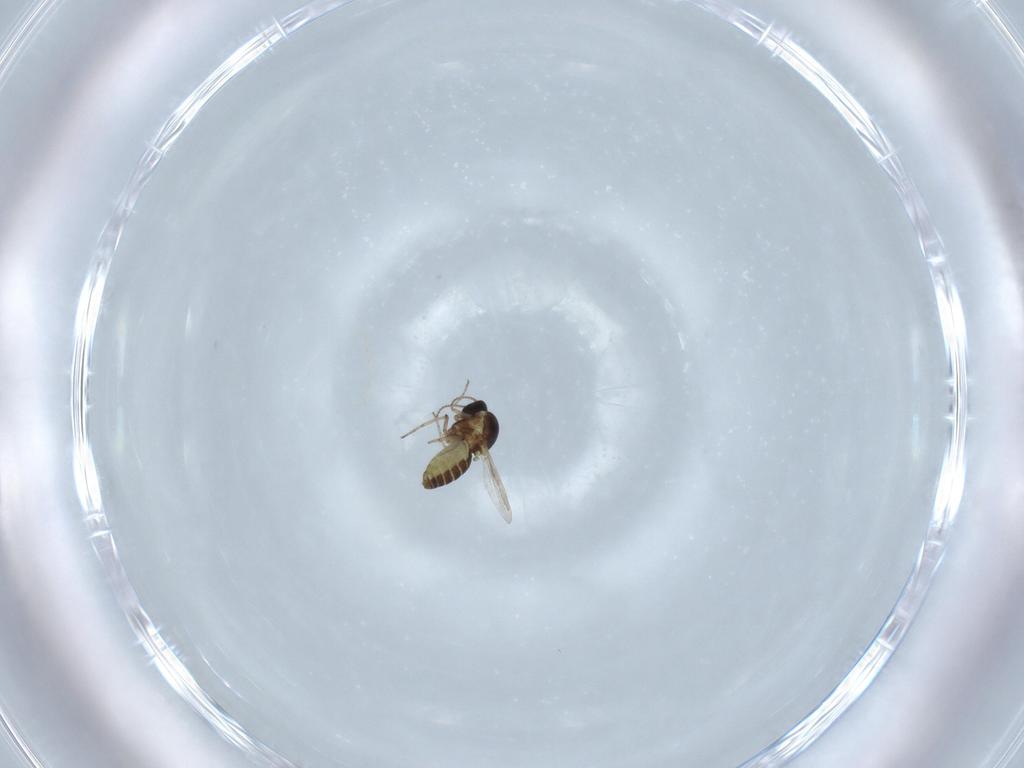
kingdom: Animalia
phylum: Arthropoda
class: Insecta
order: Diptera
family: Ceratopogonidae
